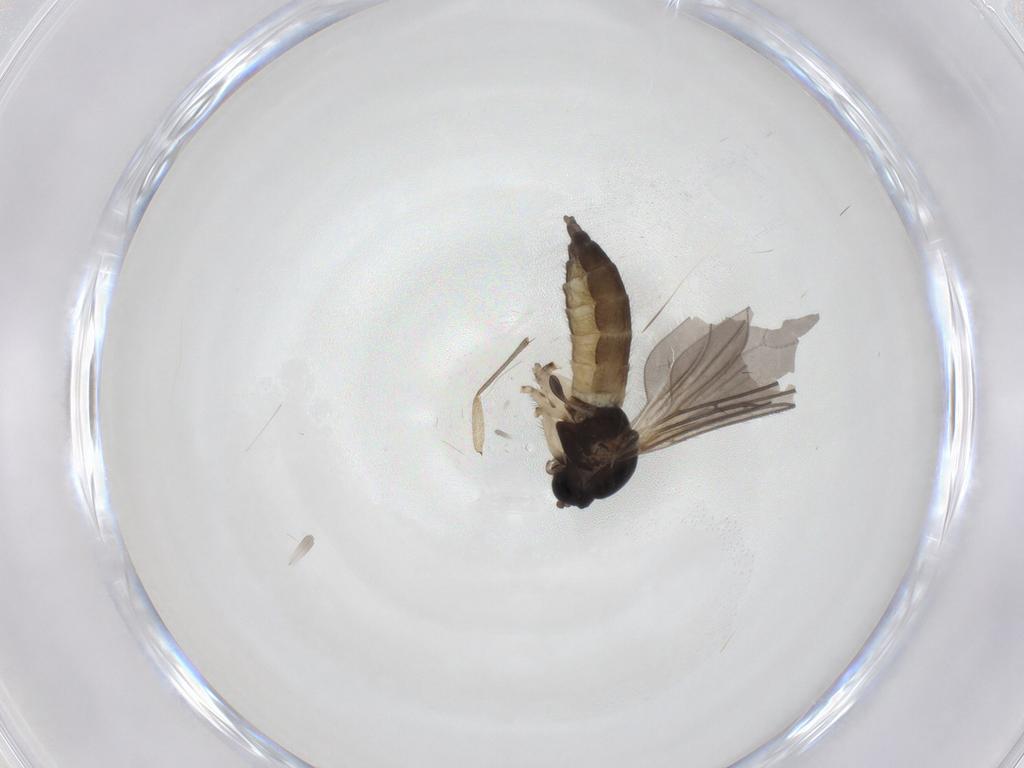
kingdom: Animalia
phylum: Arthropoda
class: Insecta
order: Diptera
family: Sciaridae
